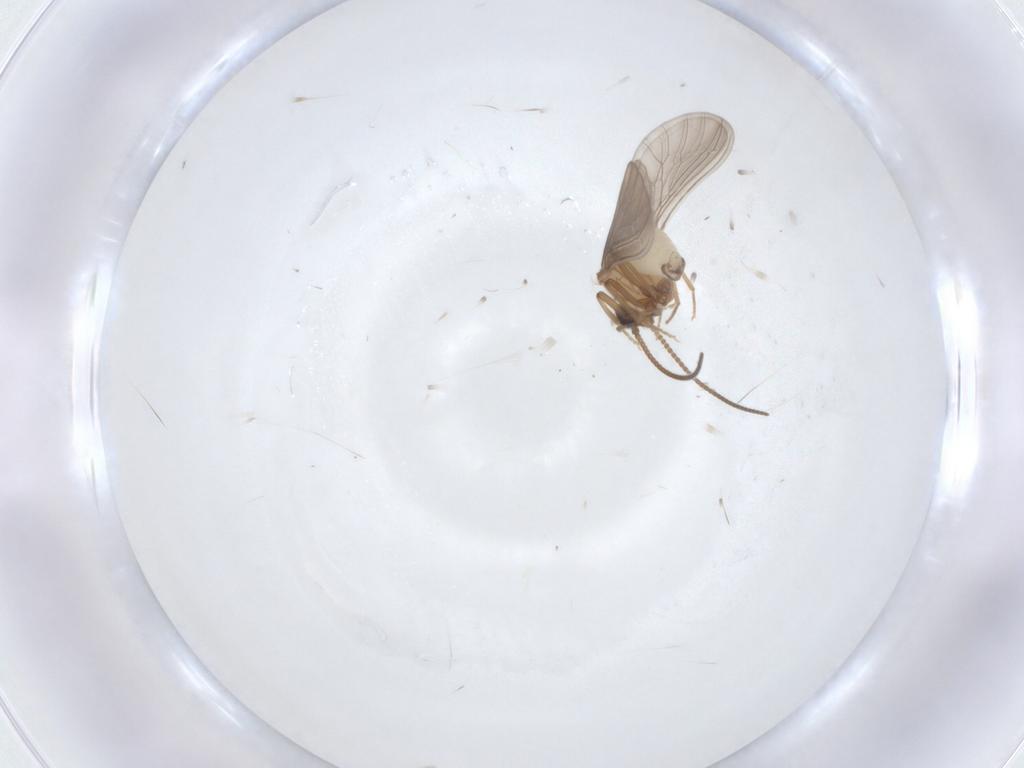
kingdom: Animalia
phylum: Arthropoda
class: Insecta
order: Neuroptera
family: Coniopterygidae
